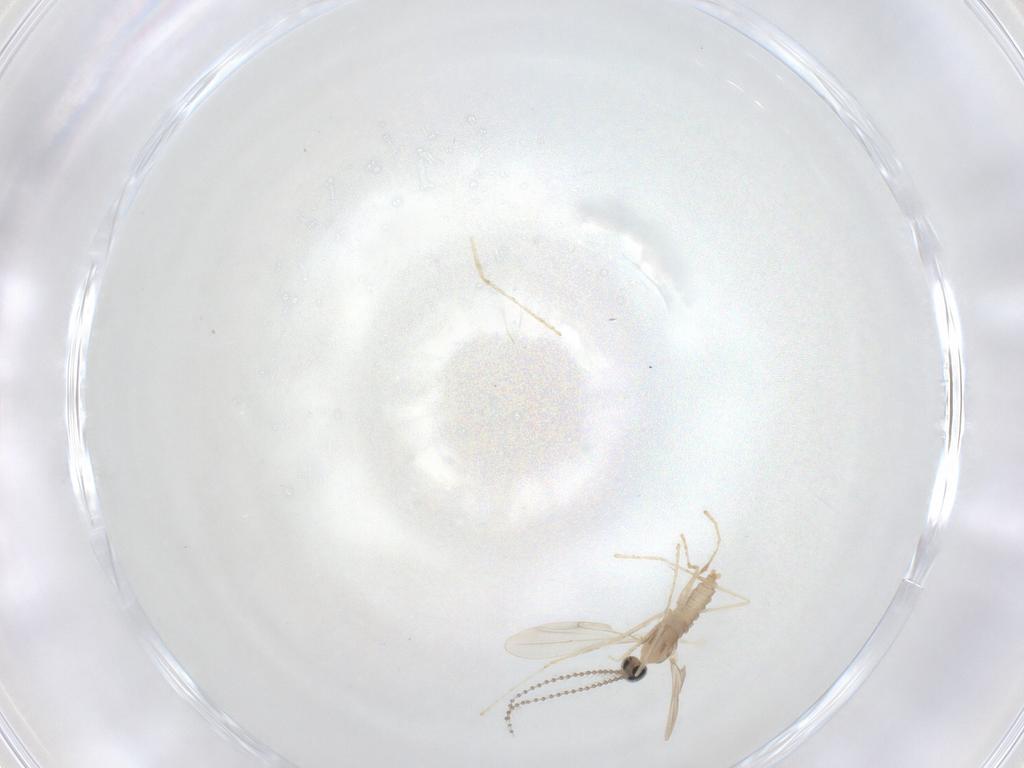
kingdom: Animalia
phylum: Arthropoda
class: Insecta
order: Diptera
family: Cecidomyiidae
